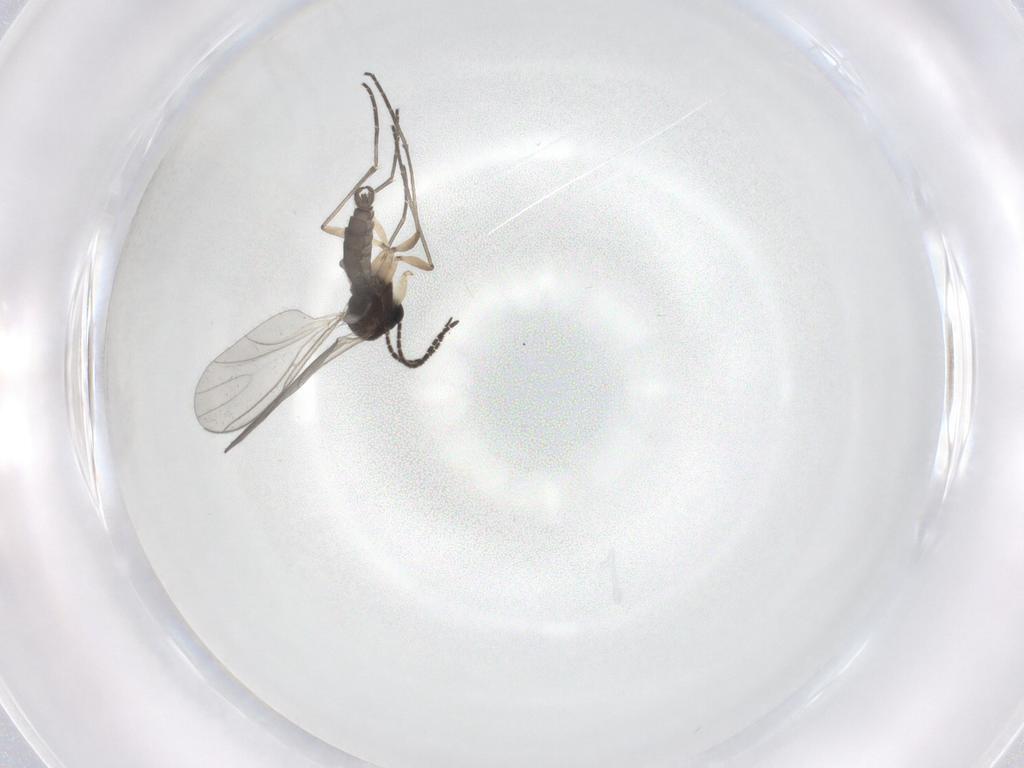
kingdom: Animalia
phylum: Arthropoda
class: Insecta
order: Diptera
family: Sciaridae
